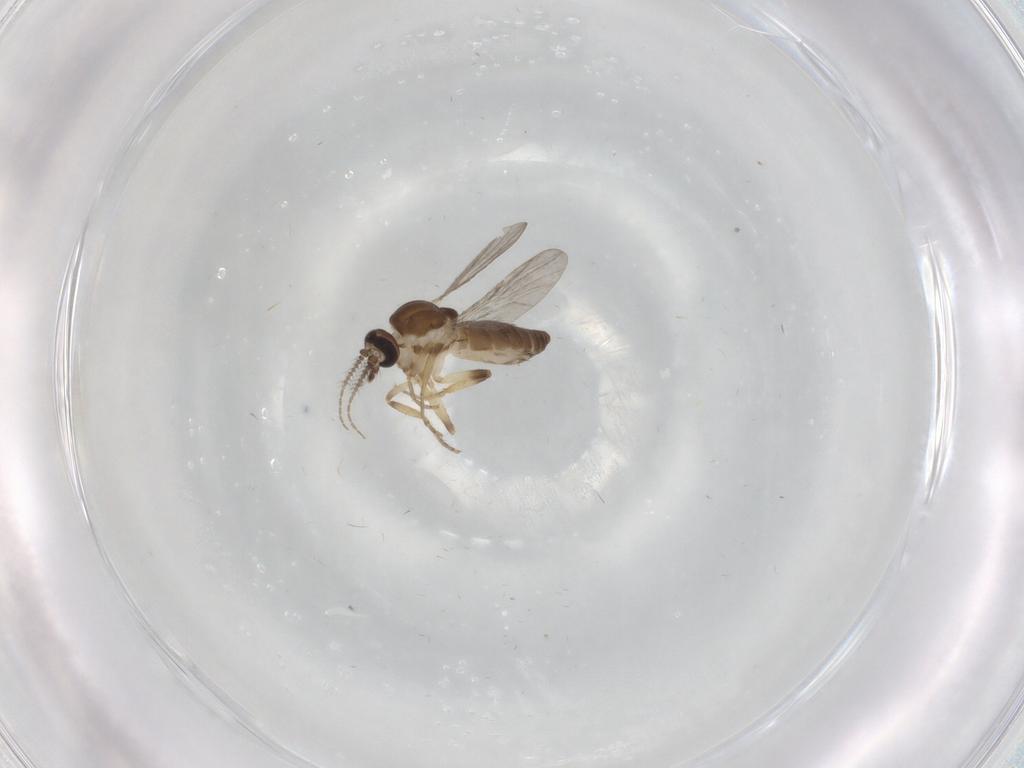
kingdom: Animalia
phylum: Arthropoda
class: Insecta
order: Diptera
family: Ceratopogonidae
